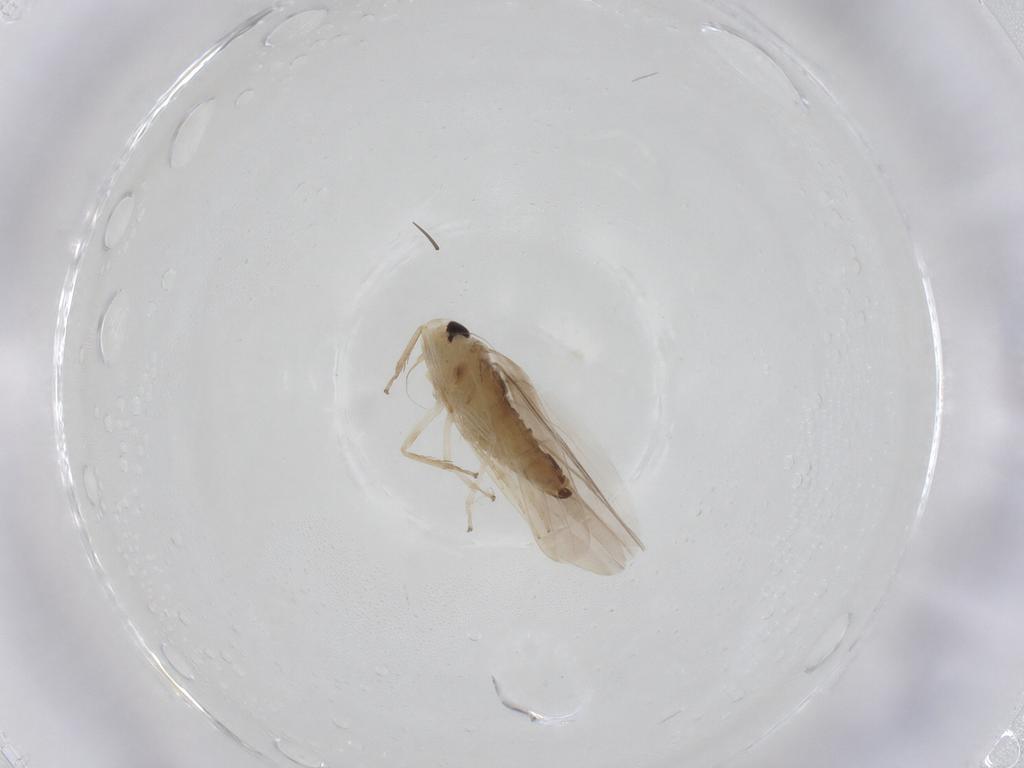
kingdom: Animalia
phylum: Arthropoda
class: Insecta
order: Hemiptera
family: Cicadellidae
